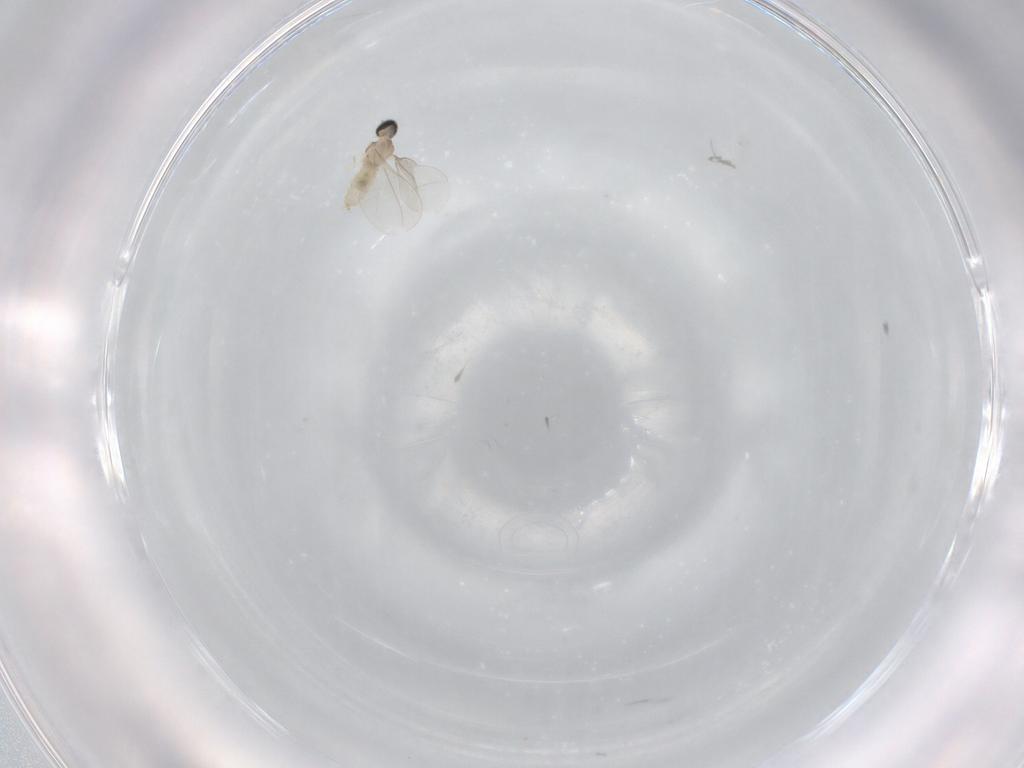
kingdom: Animalia
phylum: Arthropoda
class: Insecta
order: Diptera
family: Cecidomyiidae
